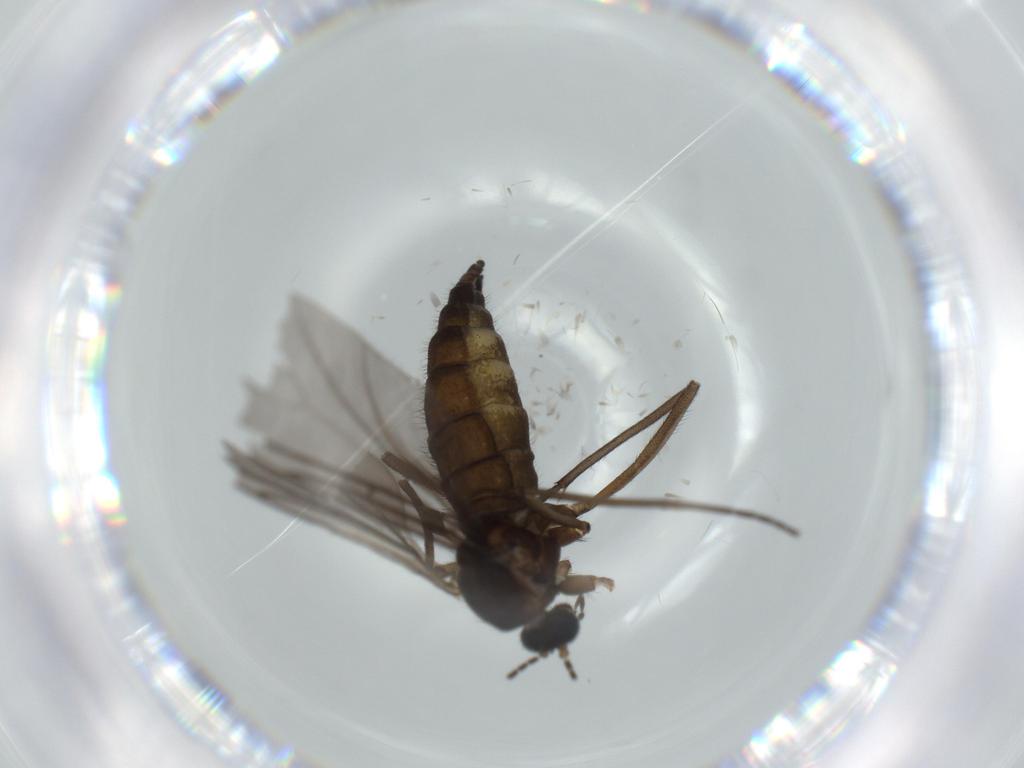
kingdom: Animalia
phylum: Arthropoda
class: Insecta
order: Diptera
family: Sciaridae
